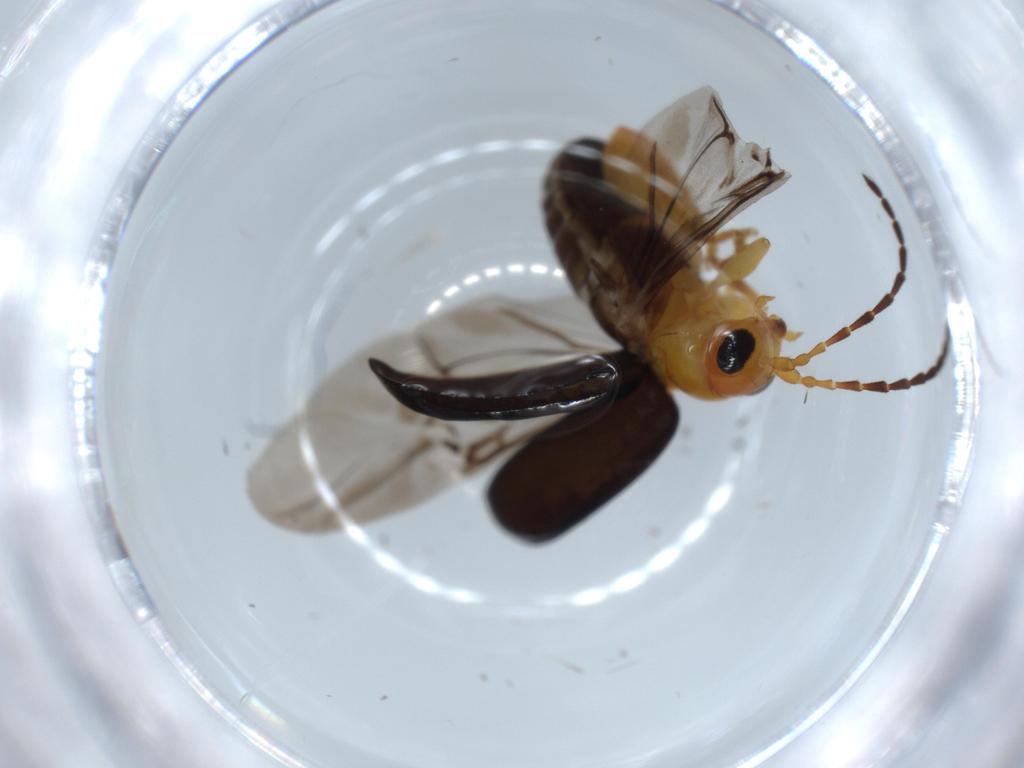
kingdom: Animalia
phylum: Arthropoda
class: Insecta
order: Coleoptera
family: Chrysomelidae
